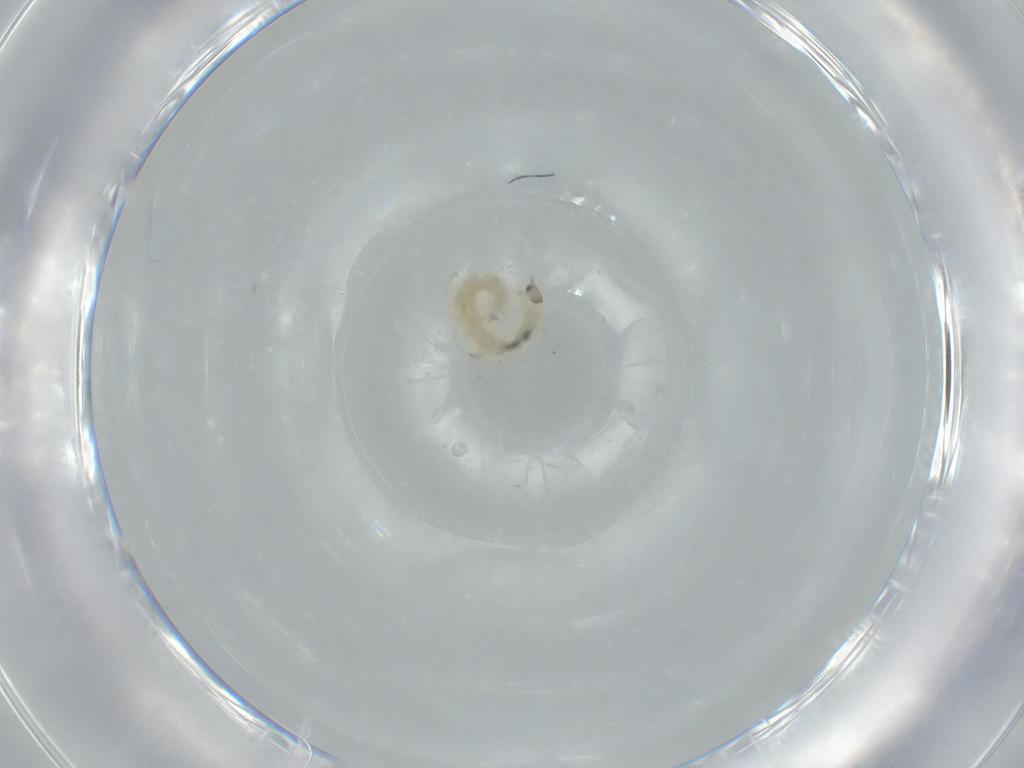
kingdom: Animalia
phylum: Arthropoda
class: Insecta
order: Diptera
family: Chironomidae
